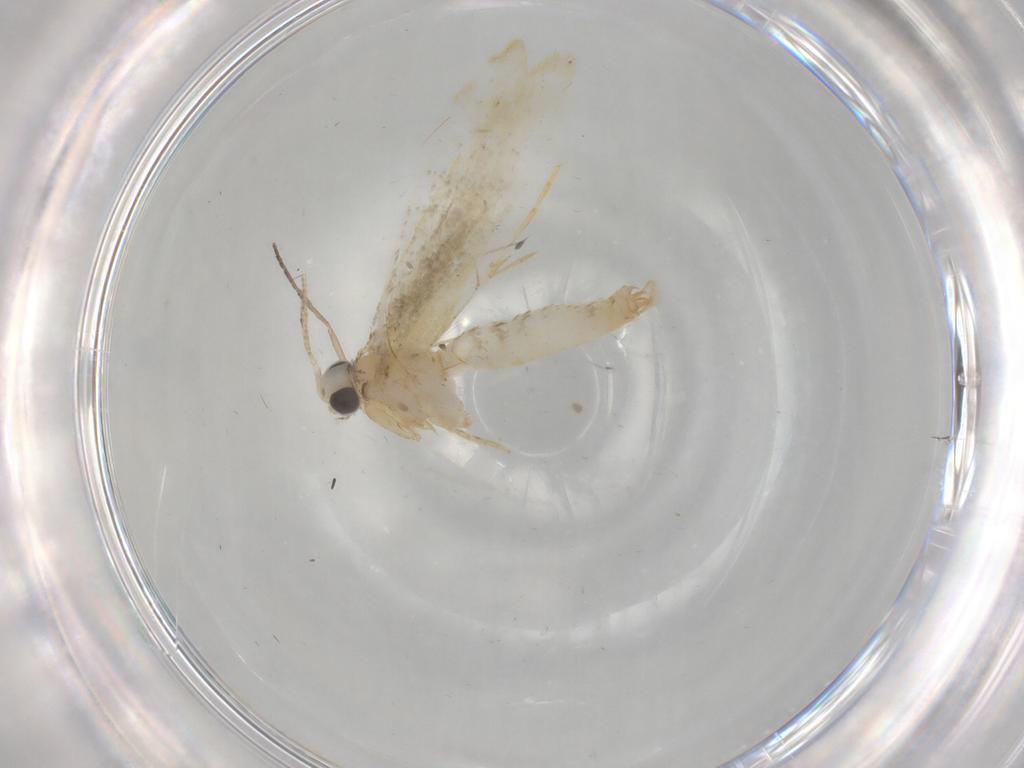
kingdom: Animalia
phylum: Arthropoda
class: Insecta
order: Lepidoptera
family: Tineidae
